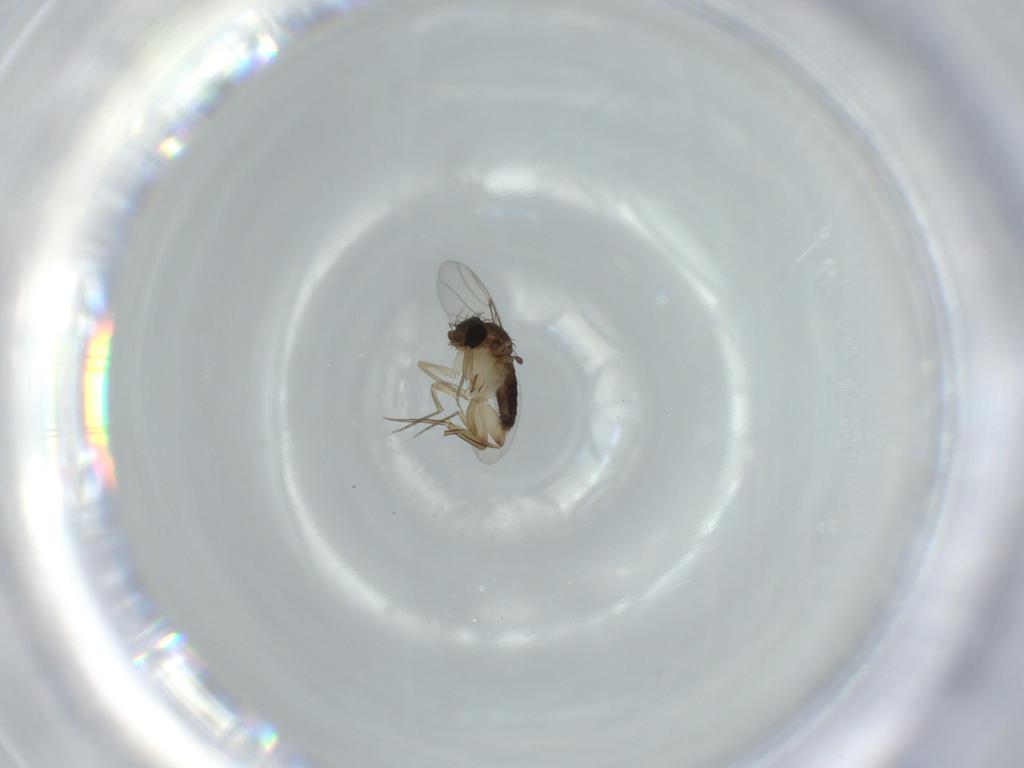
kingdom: Animalia
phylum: Arthropoda
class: Insecta
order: Diptera
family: Phoridae
